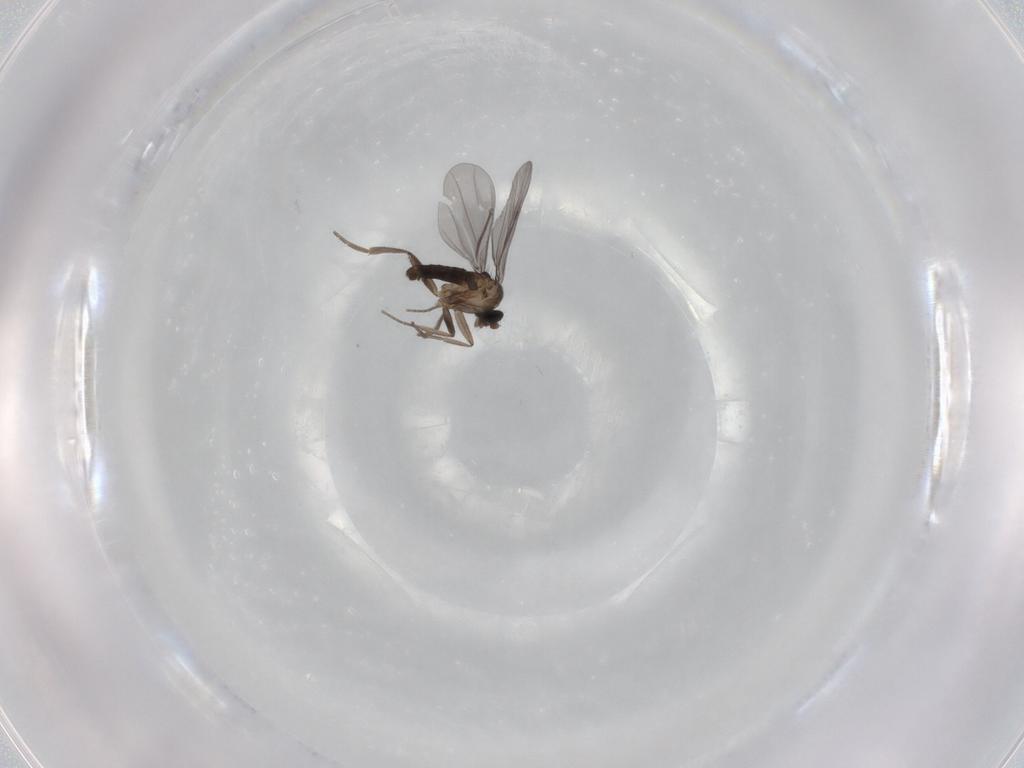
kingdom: Animalia
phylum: Arthropoda
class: Insecta
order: Diptera
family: Phoridae
